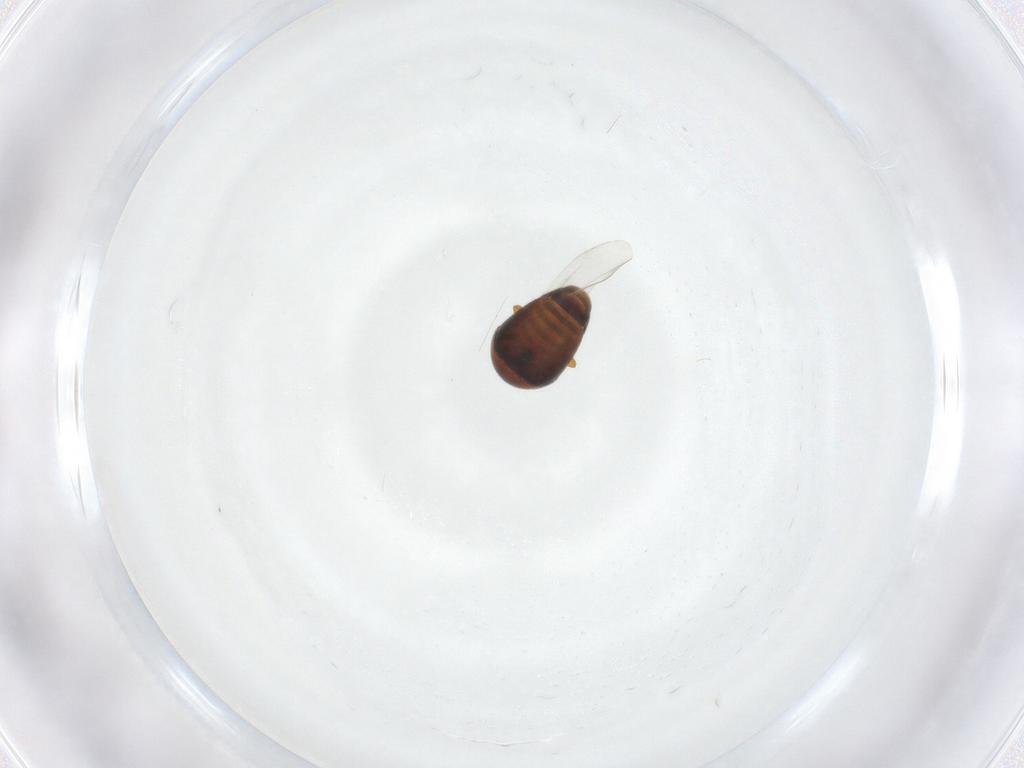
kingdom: Animalia
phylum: Arthropoda
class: Insecta
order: Coleoptera
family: Corylophidae
